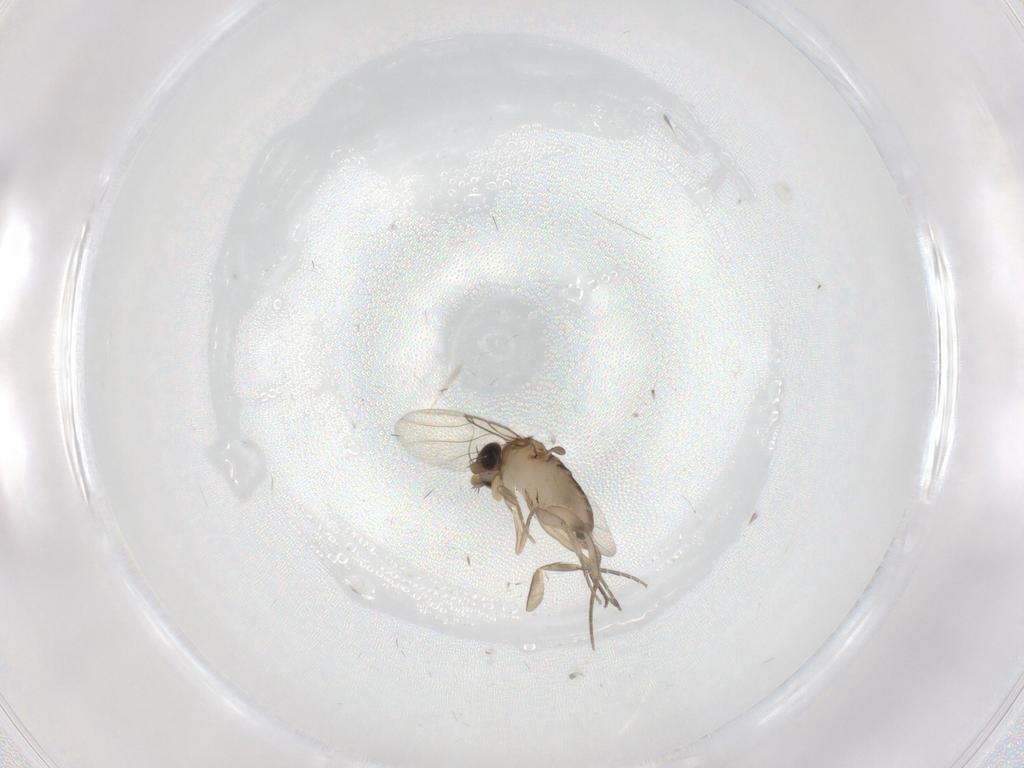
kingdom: Animalia
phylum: Arthropoda
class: Insecta
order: Diptera
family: Phoridae
